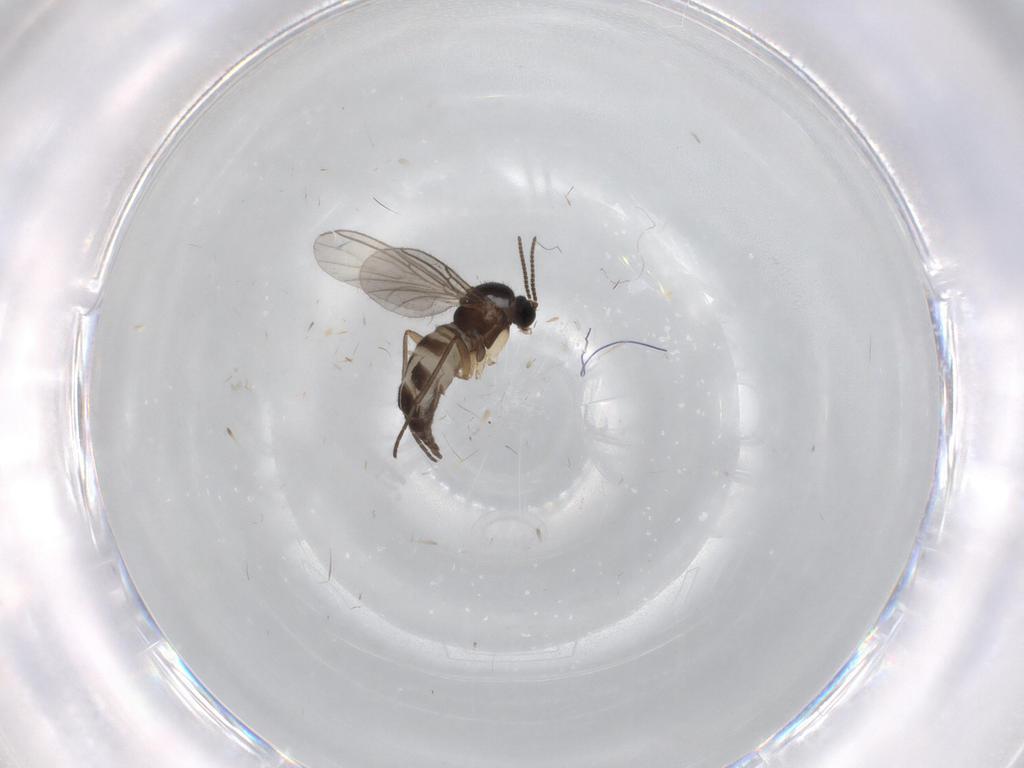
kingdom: Animalia
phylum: Arthropoda
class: Insecta
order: Diptera
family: Sciaridae
